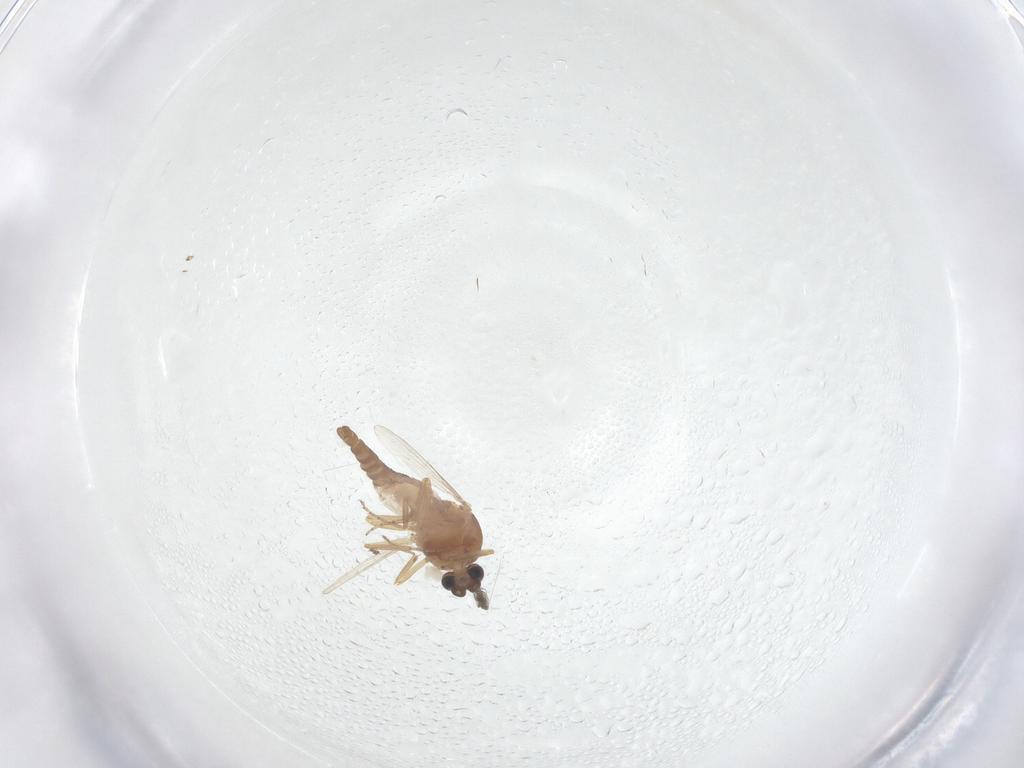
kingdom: Animalia
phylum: Arthropoda
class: Insecta
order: Diptera
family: Ceratopogonidae
